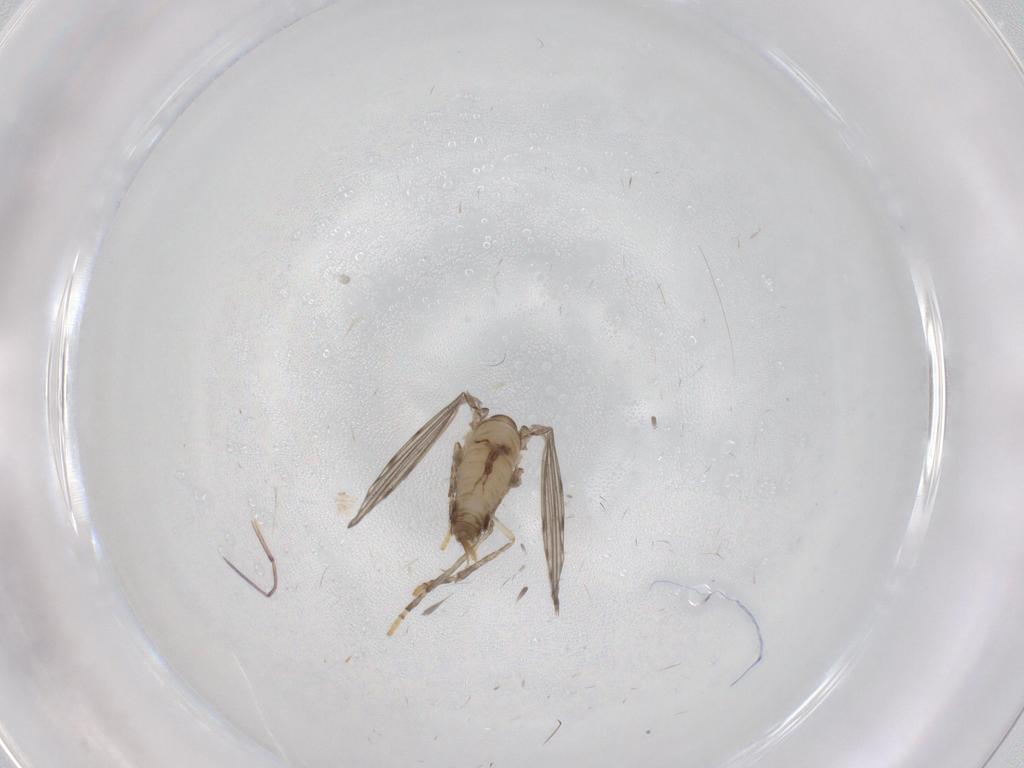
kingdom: Animalia
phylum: Arthropoda
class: Insecta
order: Diptera
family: Psychodidae
